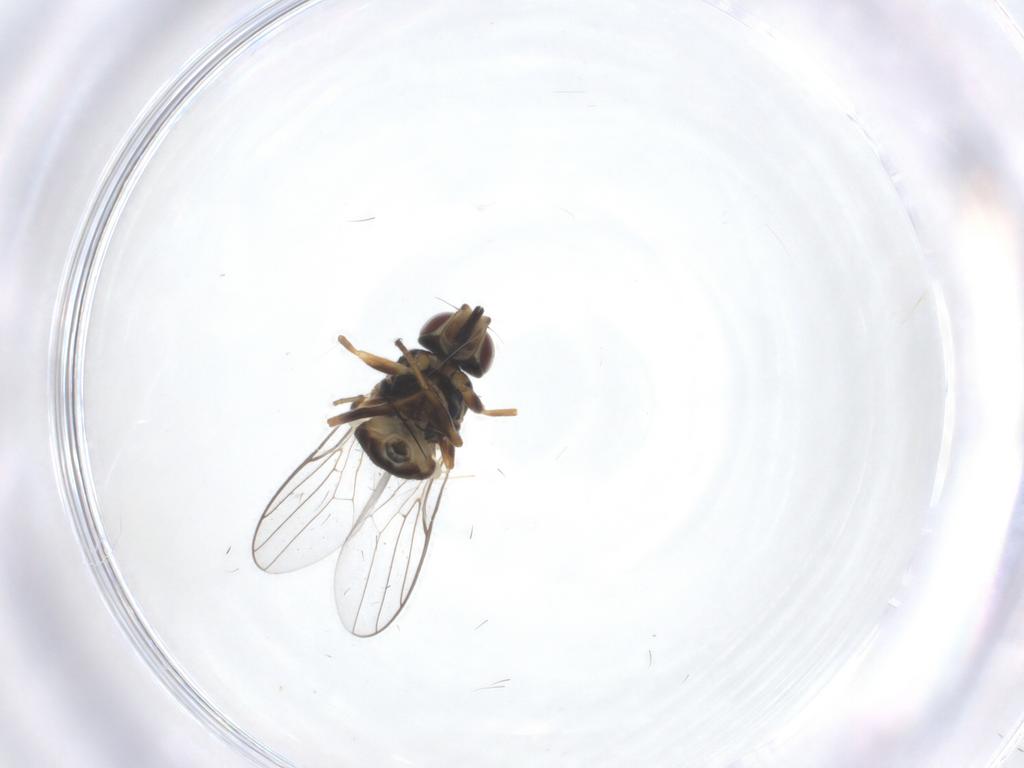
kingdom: Animalia
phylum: Arthropoda
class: Insecta
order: Diptera
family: Chloropidae
